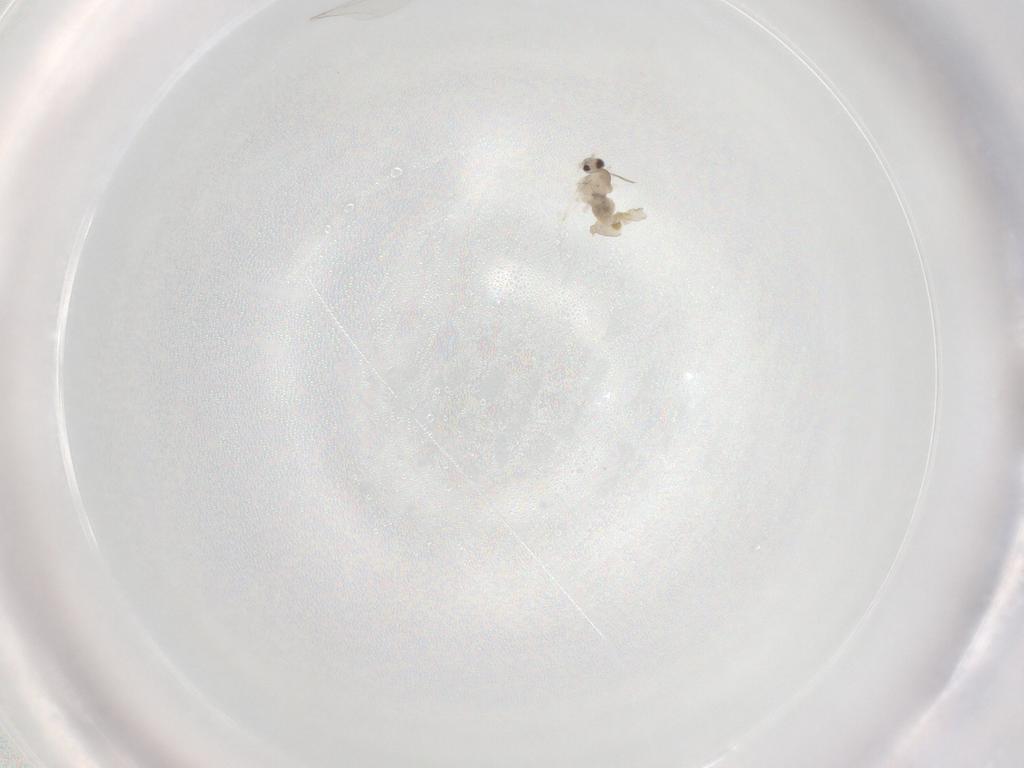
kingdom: Animalia
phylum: Arthropoda
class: Insecta
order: Diptera
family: Cecidomyiidae
